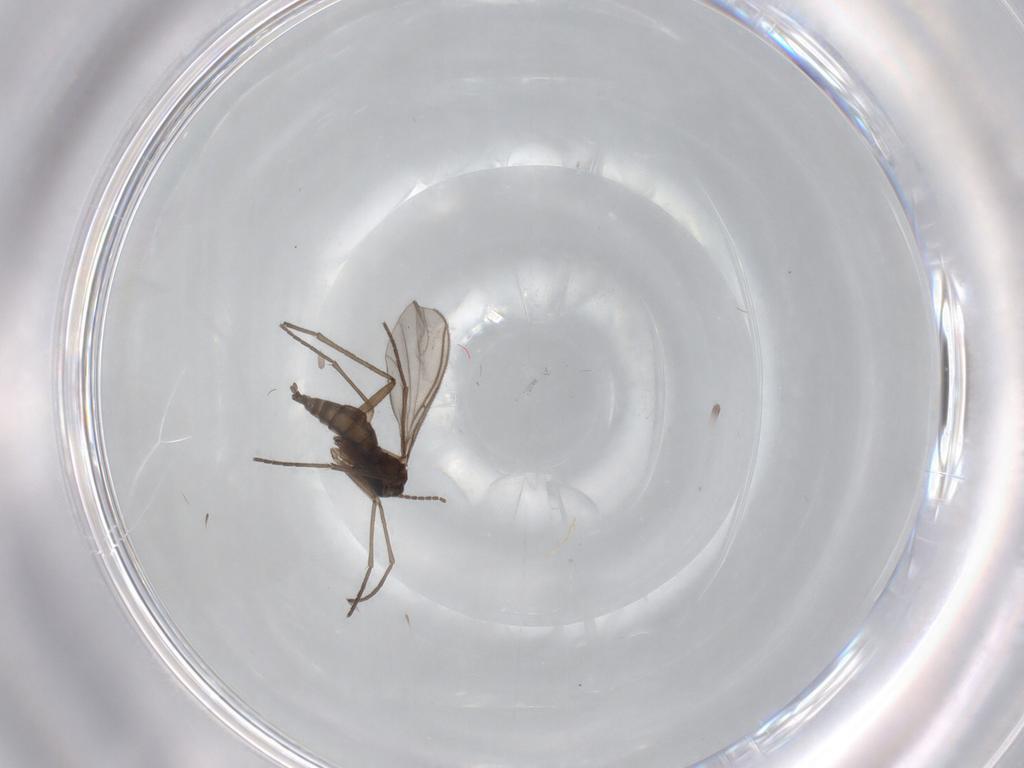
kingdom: Animalia
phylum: Arthropoda
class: Insecta
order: Diptera
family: Sciaridae
